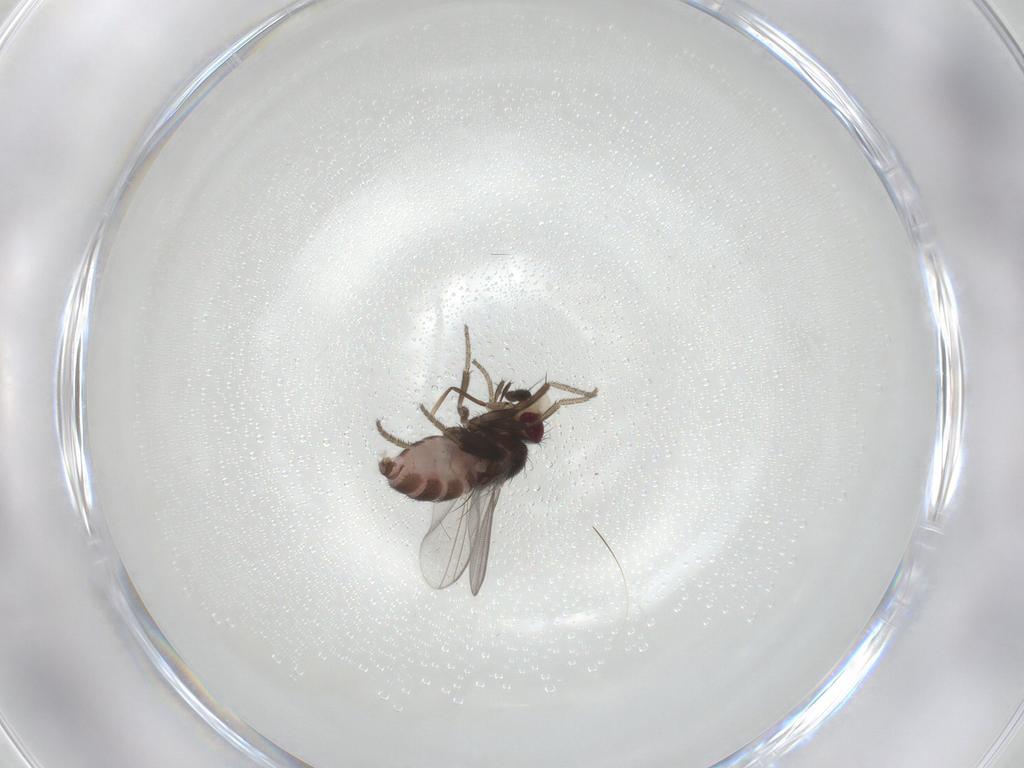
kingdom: Animalia
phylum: Arthropoda
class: Insecta
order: Diptera
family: Milichiidae
